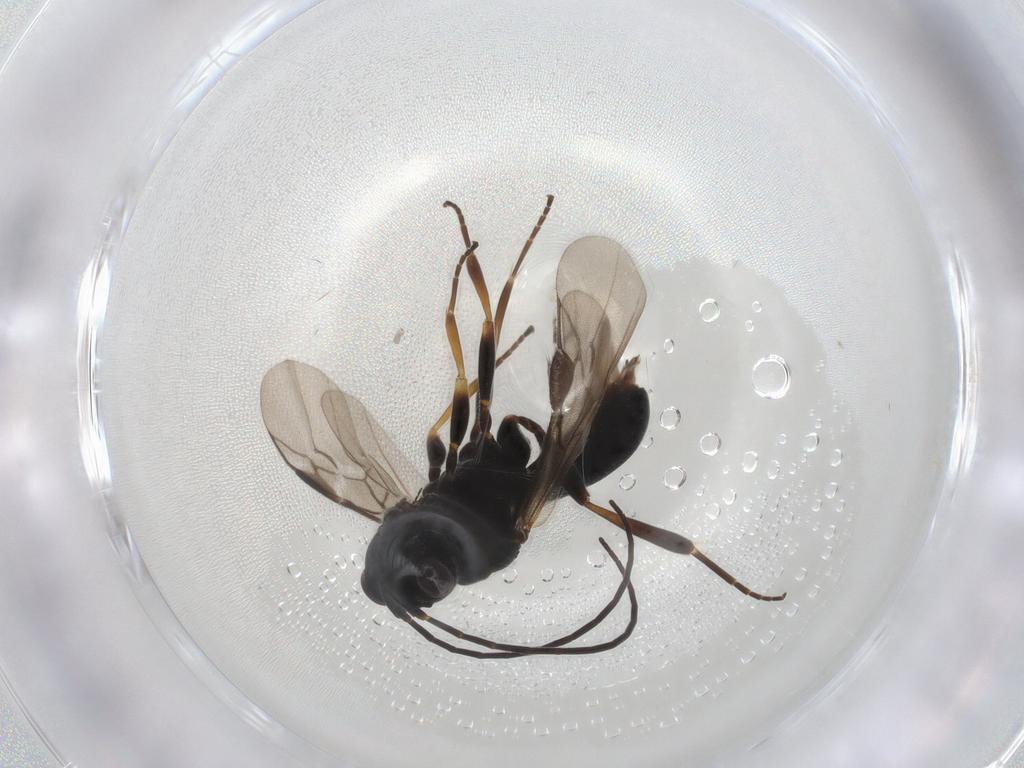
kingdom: Animalia
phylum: Arthropoda
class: Insecta
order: Hymenoptera
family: Braconidae
